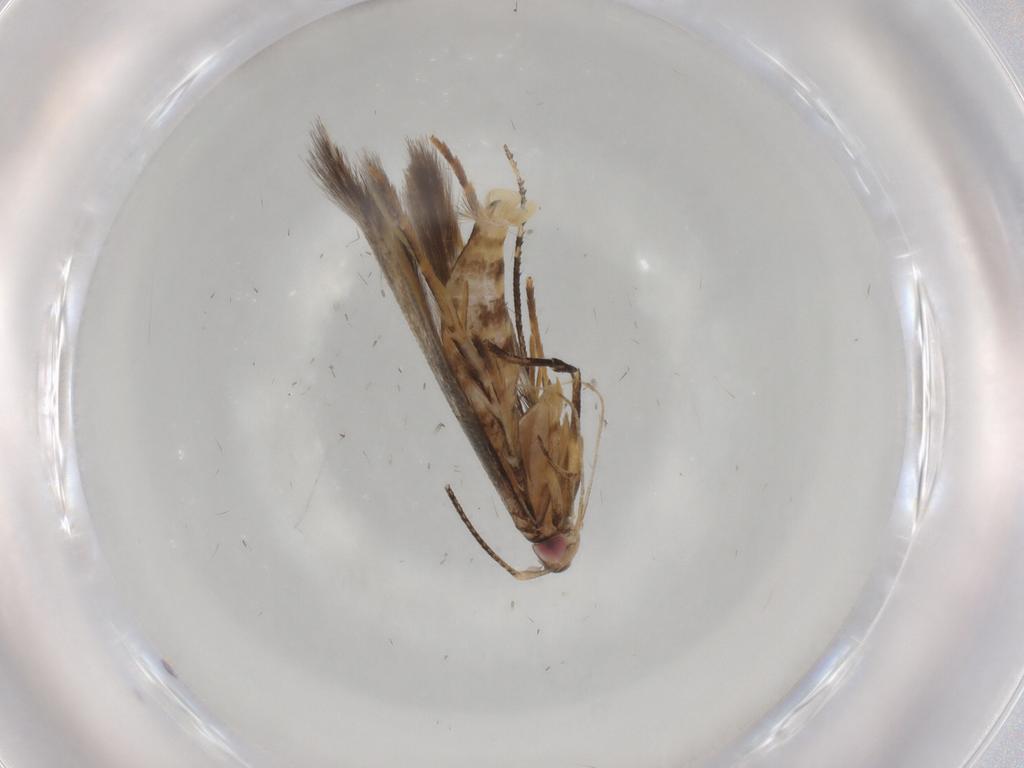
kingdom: Animalia
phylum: Arthropoda
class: Insecta
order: Lepidoptera
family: Cosmopterigidae
